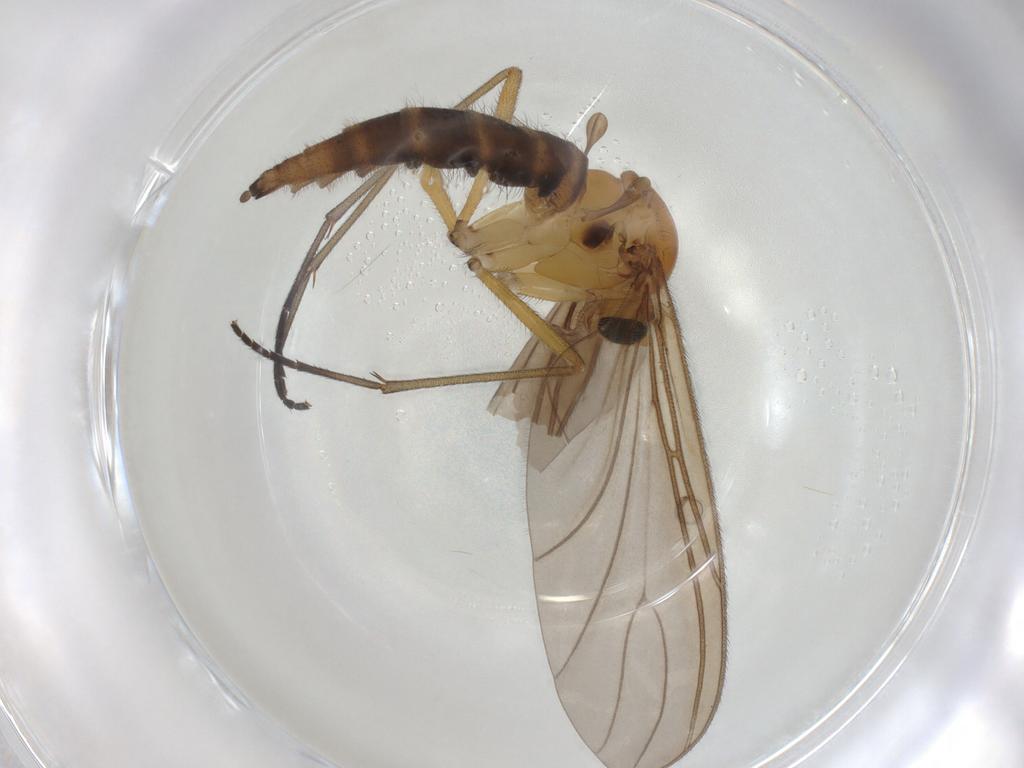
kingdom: Animalia
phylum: Arthropoda
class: Insecta
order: Diptera
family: Sciaridae
